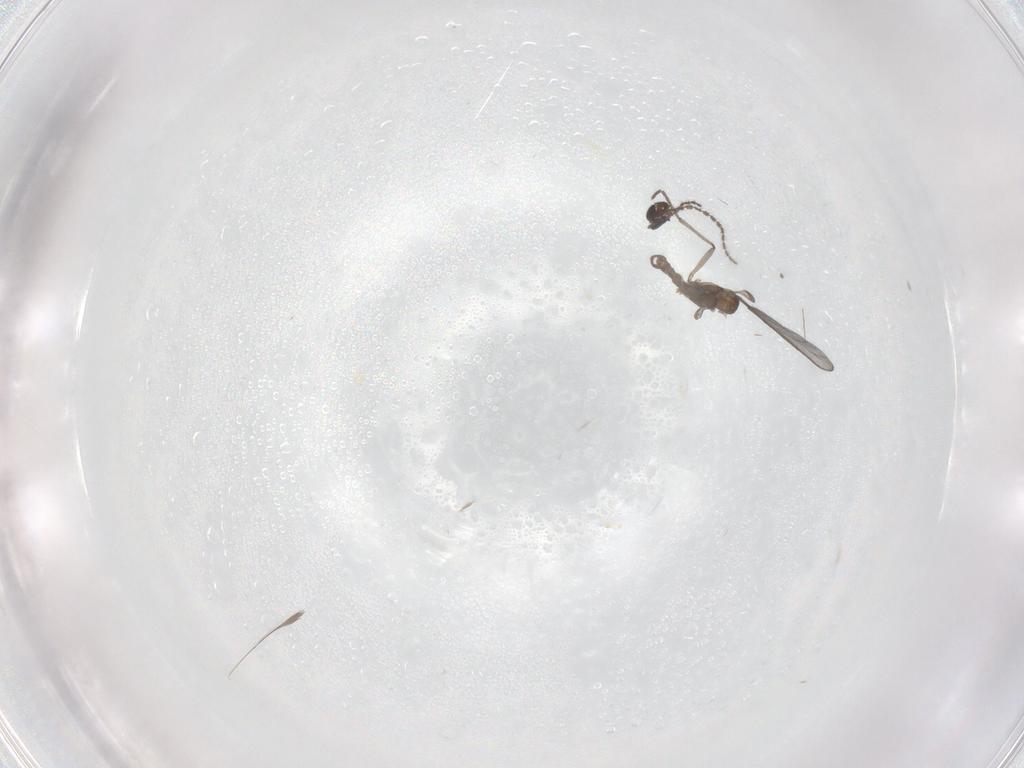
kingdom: Animalia
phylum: Arthropoda
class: Insecta
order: Diptera
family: Sciaridae
